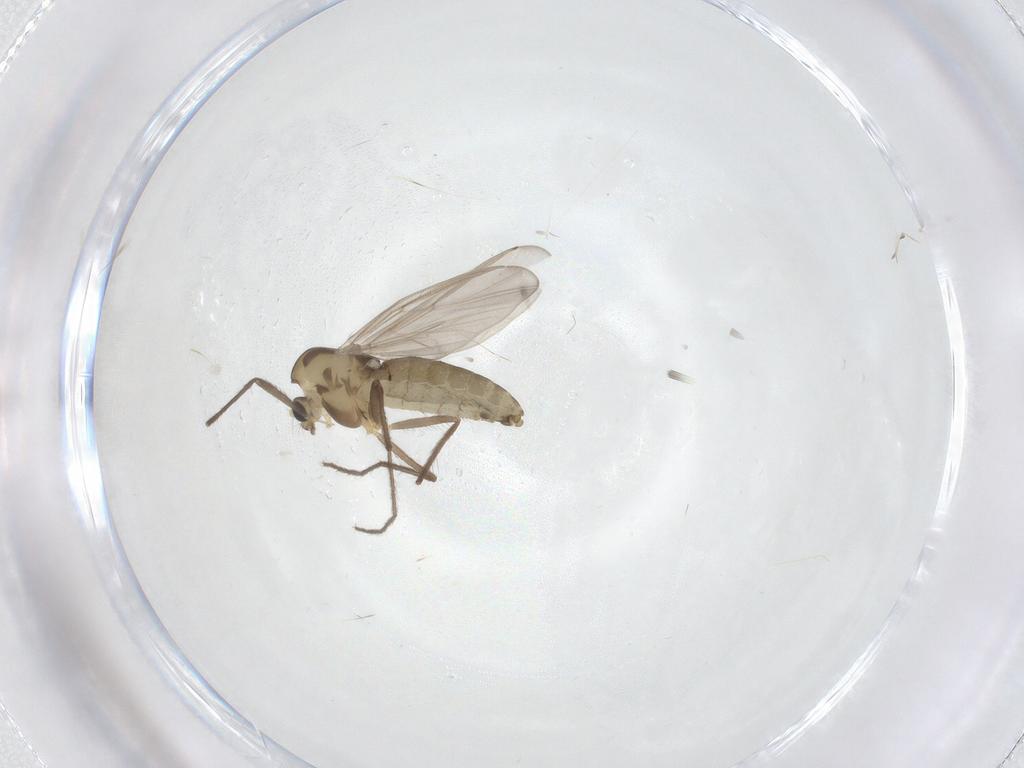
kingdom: Animalia
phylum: Arthropoda
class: Insecta
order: Diptera
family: Chironomidae
